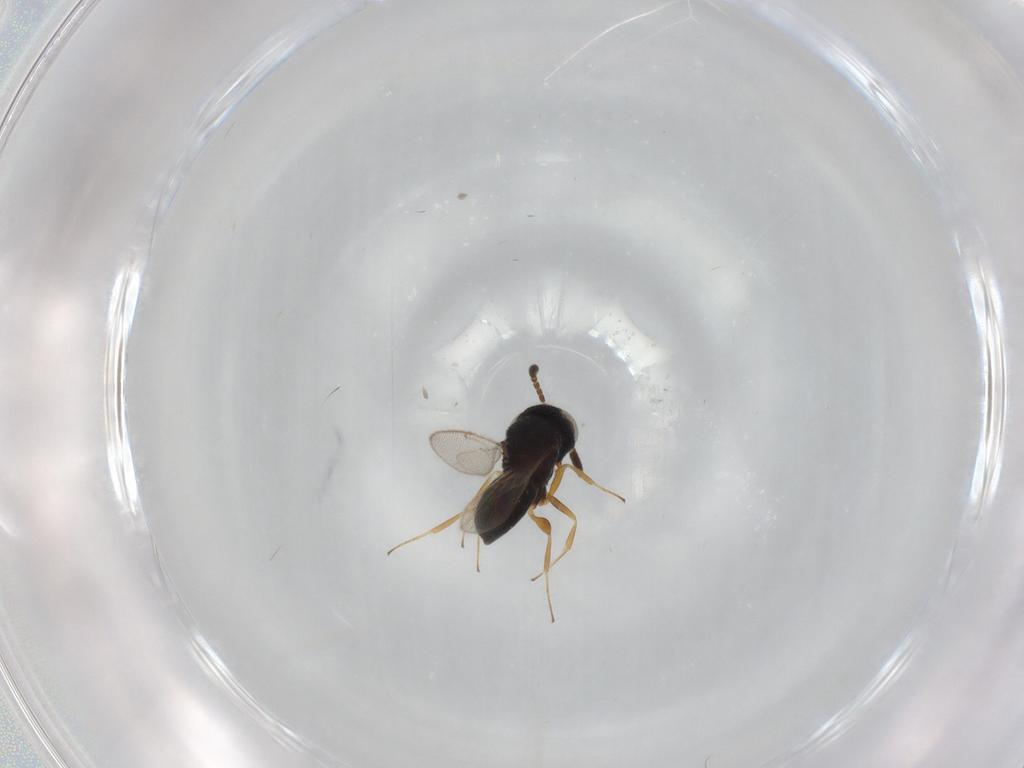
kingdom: Animalia
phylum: Arthropoda
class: Insecta
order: Hymenoptera
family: Scelionidae
